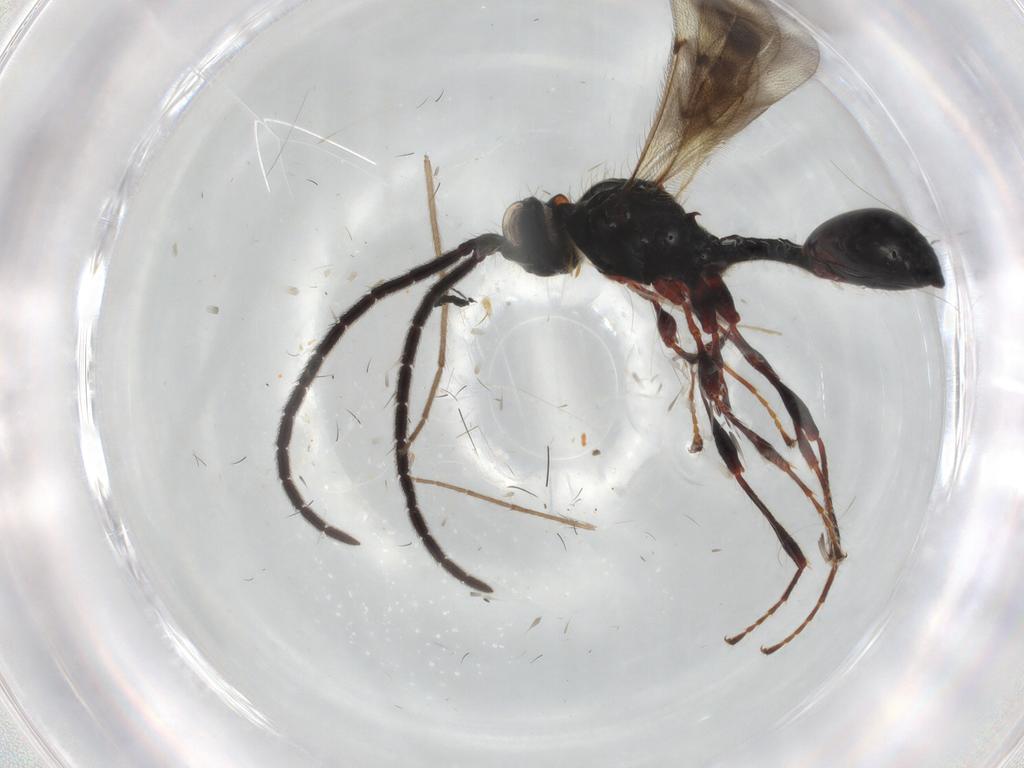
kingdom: Animalia
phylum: Arthropoda
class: Insecta
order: Hymenoptera
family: Diapriidae
